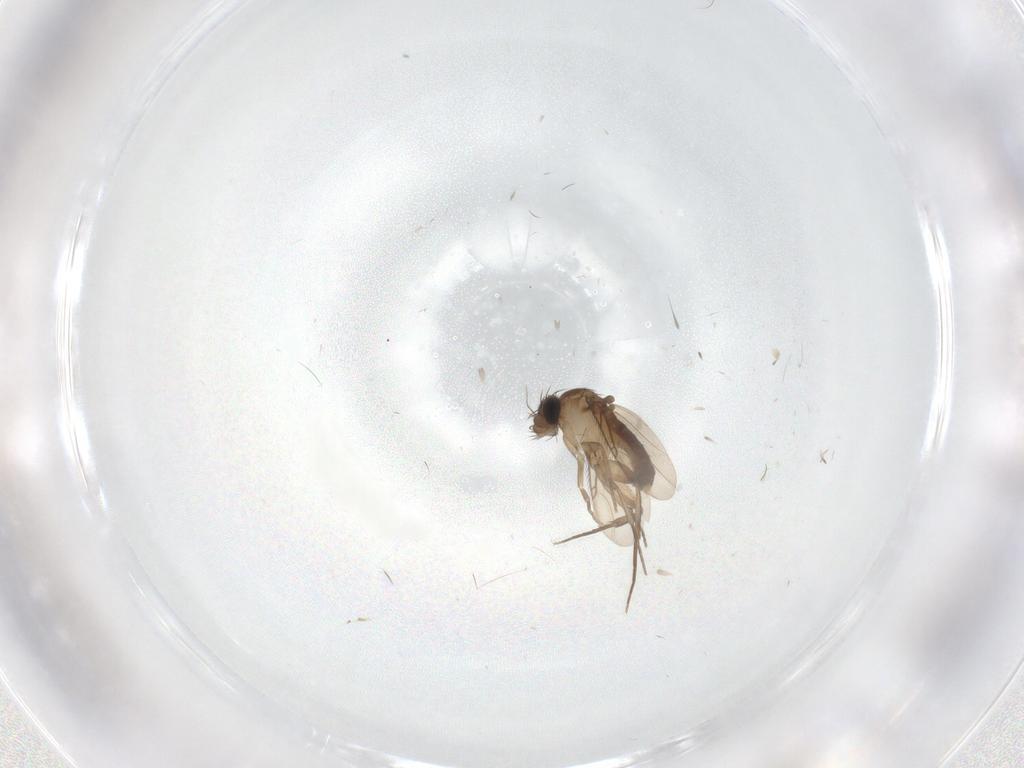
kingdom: Animalia
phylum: Arthropoda
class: Insecta
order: Diptera
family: Phoridae
